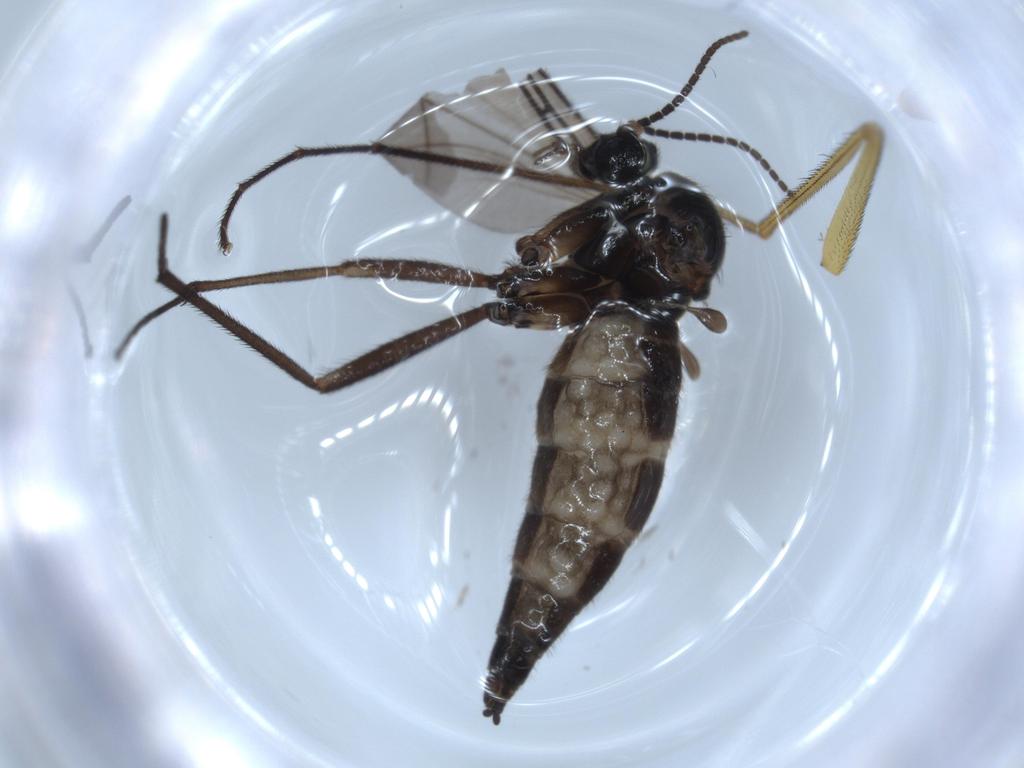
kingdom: Animalia
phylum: Arthropoda
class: Insecta
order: Diptera
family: Sciaridae
